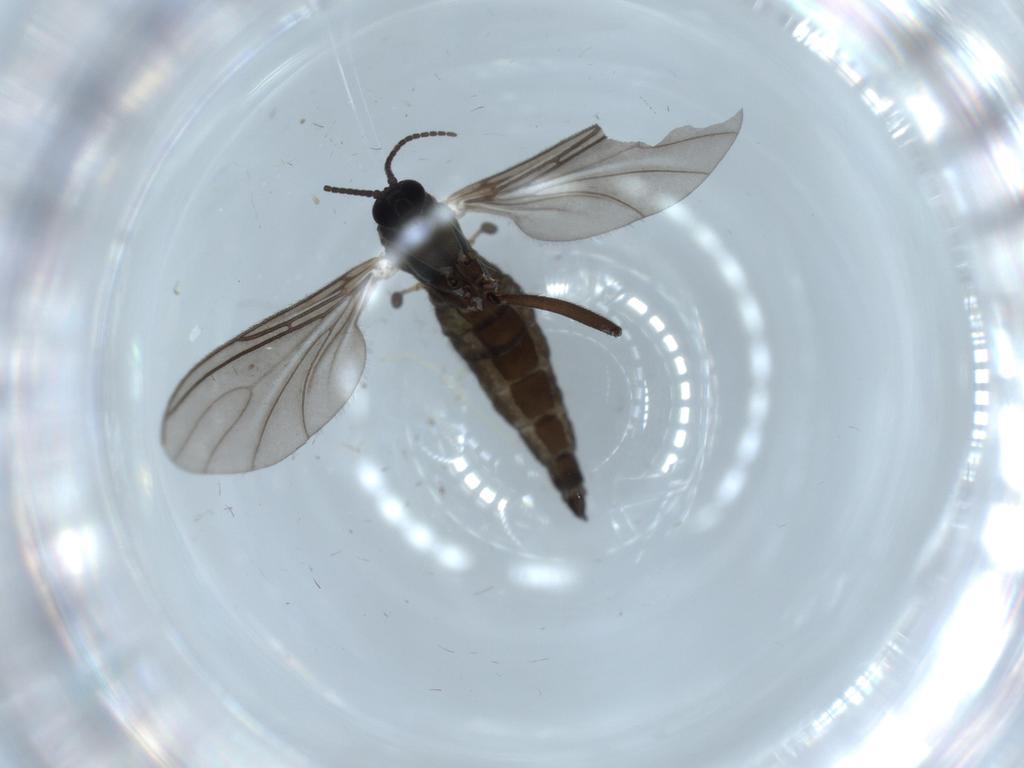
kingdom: Animalia
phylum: Arthropoda
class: Insecta
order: Diptera
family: Sciaridae
